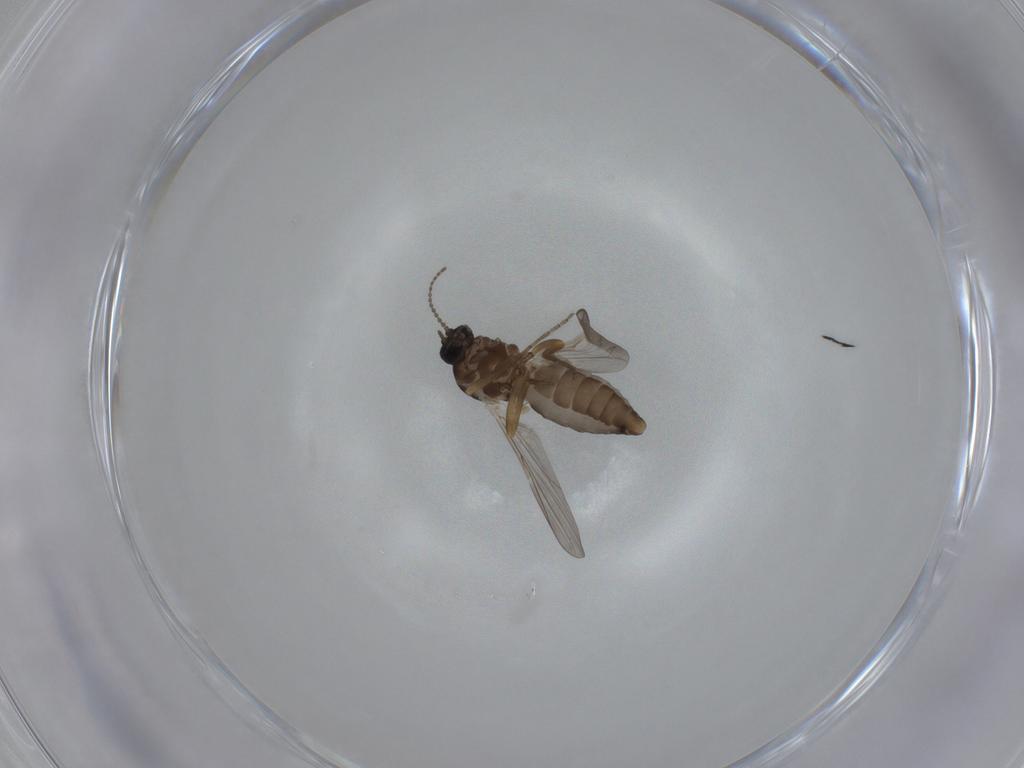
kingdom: Animalia
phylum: Arthropoda
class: Insecta
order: Diptera
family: Ceratopogonidae
